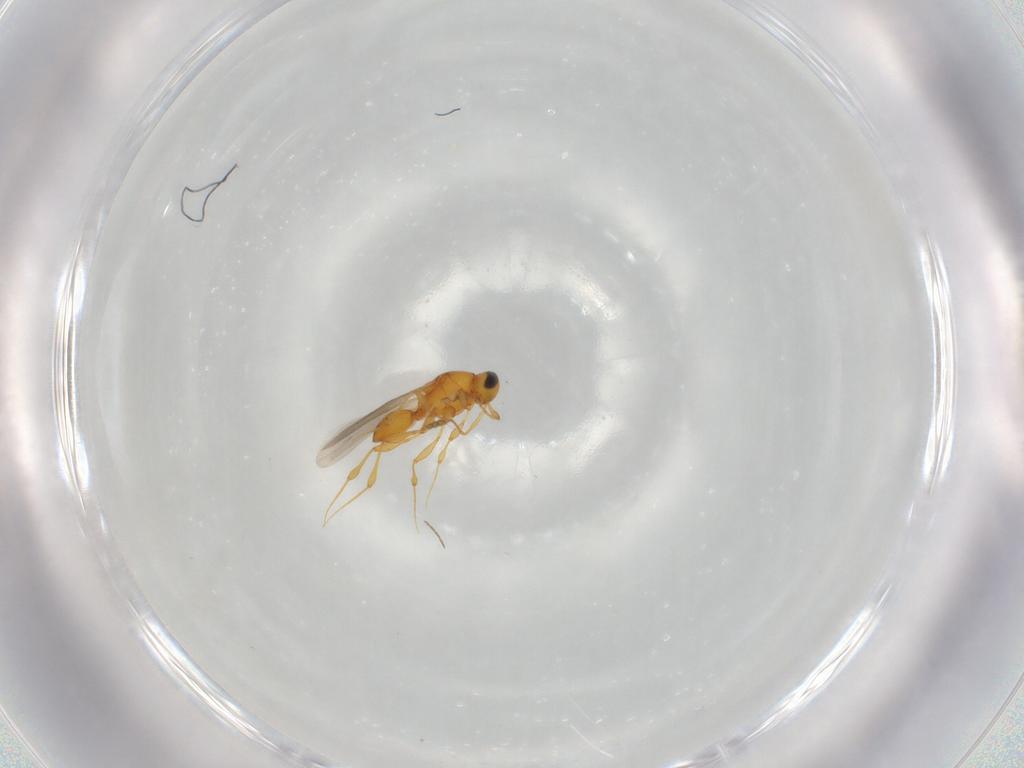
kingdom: Animalia
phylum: Arthropoda
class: Insecta
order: Hymenoptera
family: Platygastridae
